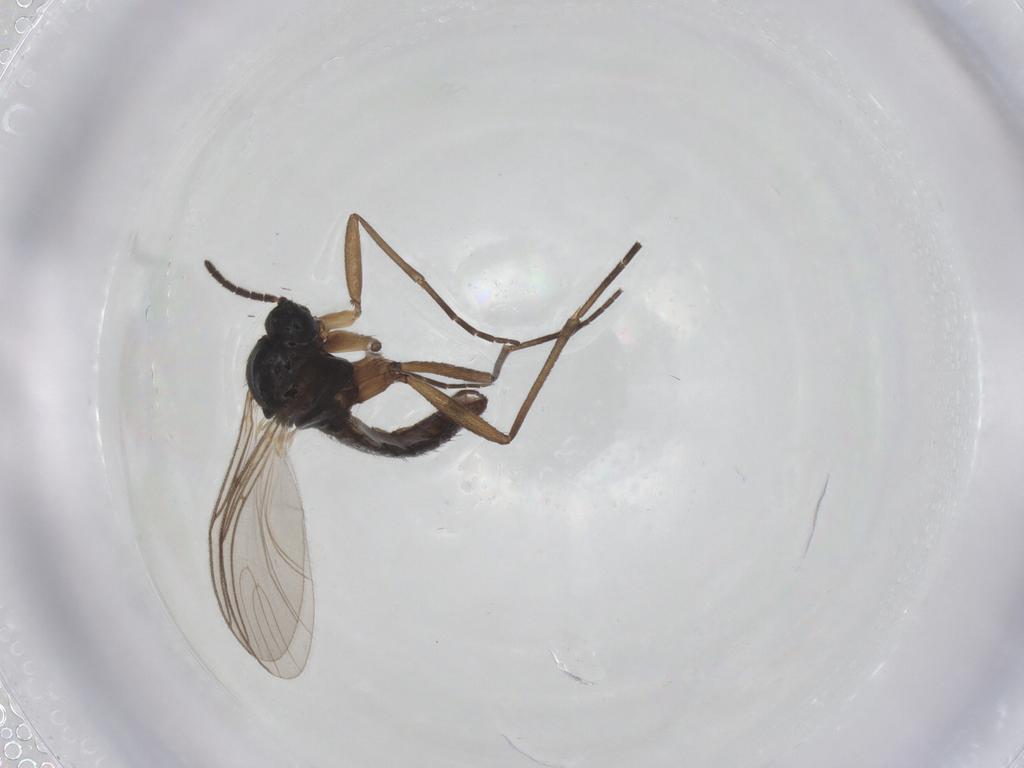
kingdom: Animalia
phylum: Arthropoda
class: Insecta
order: Diptera
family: Sciaridae
